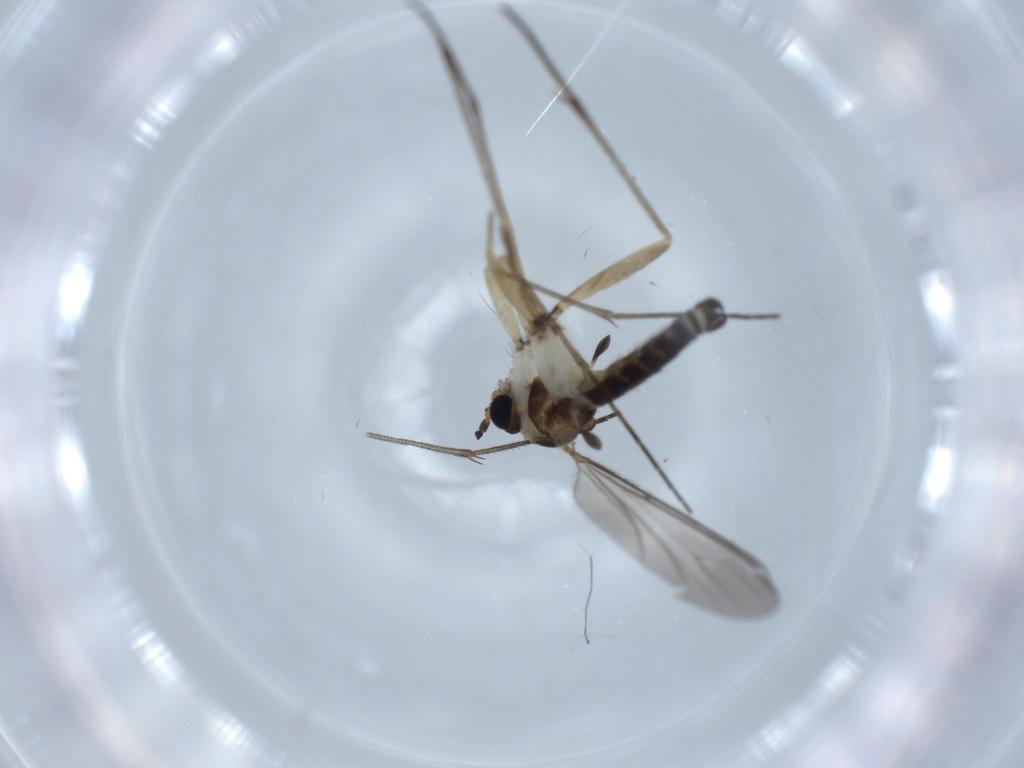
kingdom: Animalia
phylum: Arthropoda
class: Insecta
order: Diptera
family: Sciaridae
